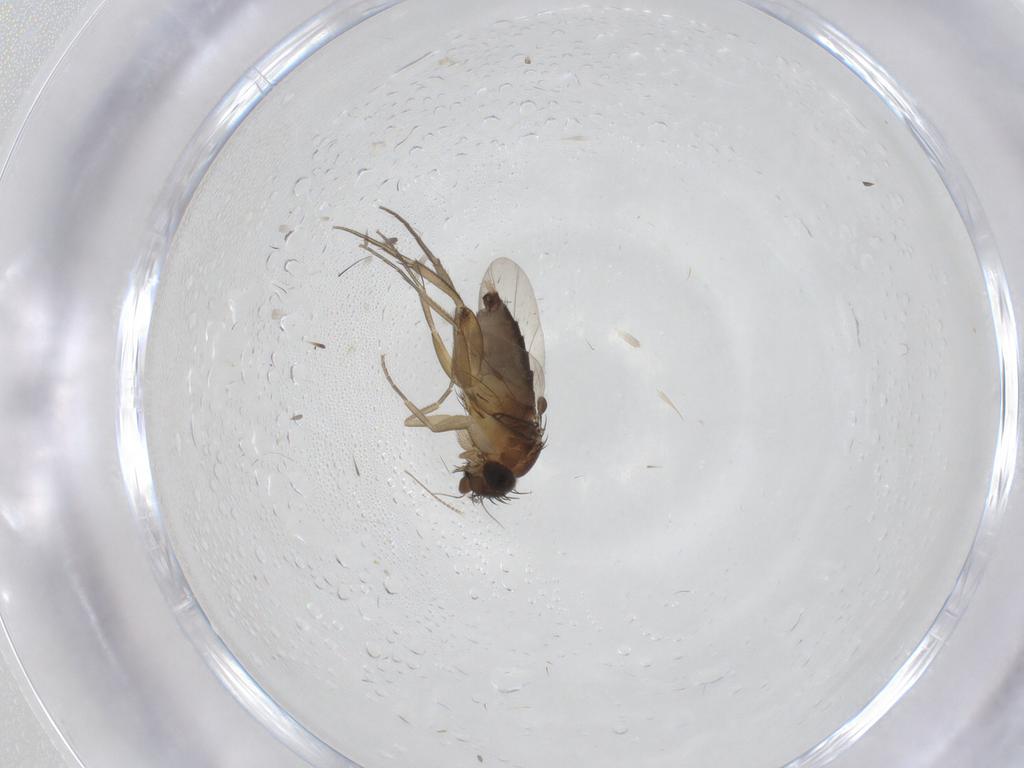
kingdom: Animalia
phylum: Arthropoda
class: Insecta
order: Diptera
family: Phoridae
